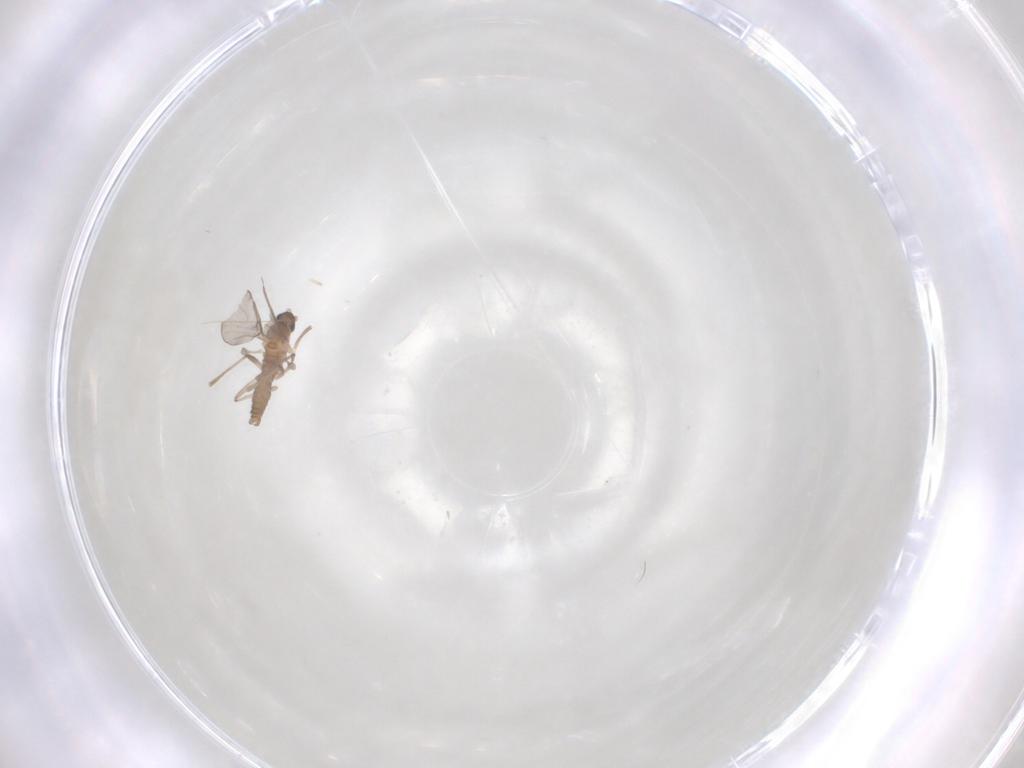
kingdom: Animalia
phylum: Arthropoda
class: Insecta
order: Diptera
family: Cecidomyiidae
